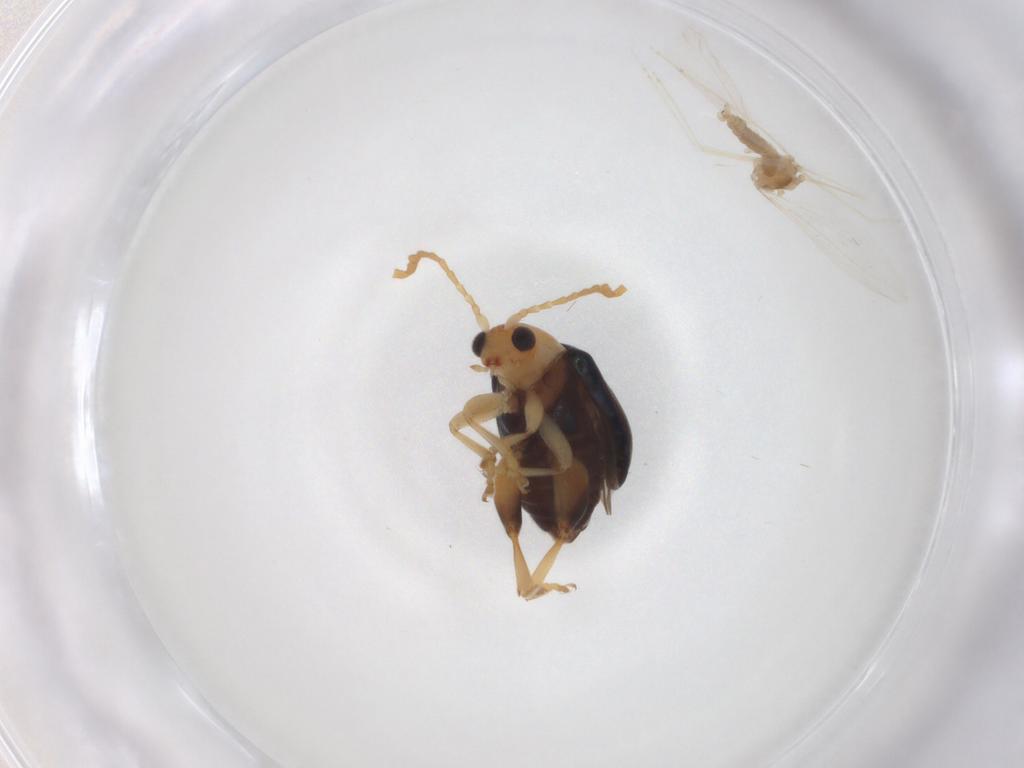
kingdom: Animalia
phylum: Arthropoda
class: Insecta
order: Coleoptera
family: Chrysomelidae
